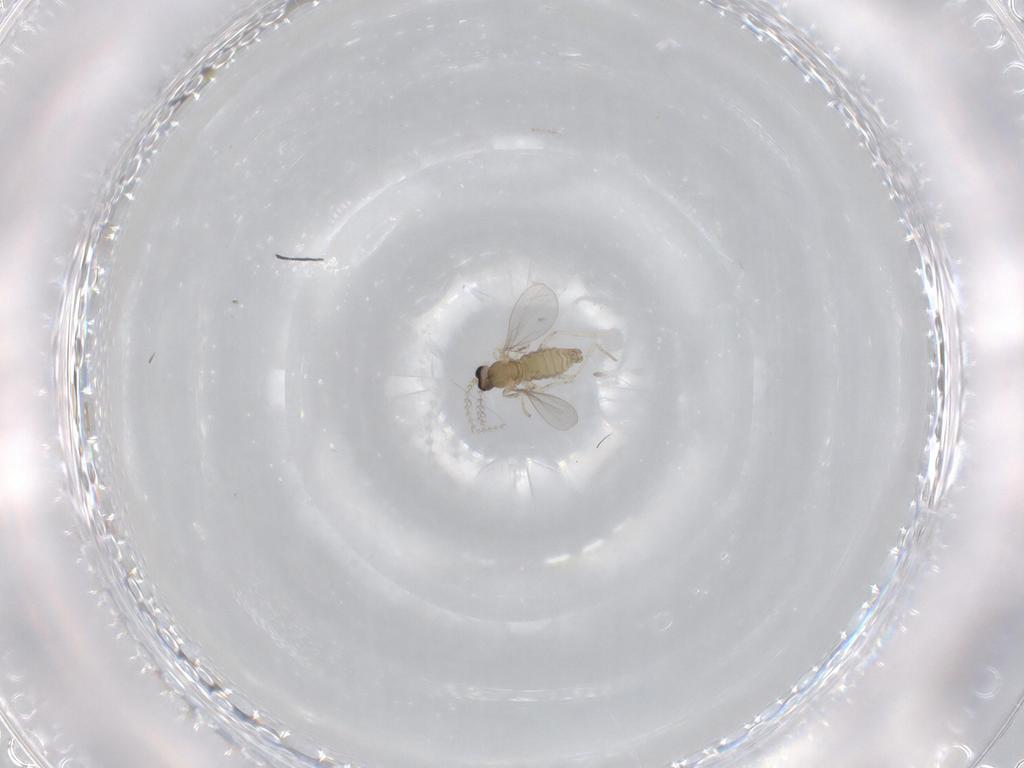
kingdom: Animalia
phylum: Arthropoda
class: Insecta
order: Diptera
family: Cecidomyiidae
